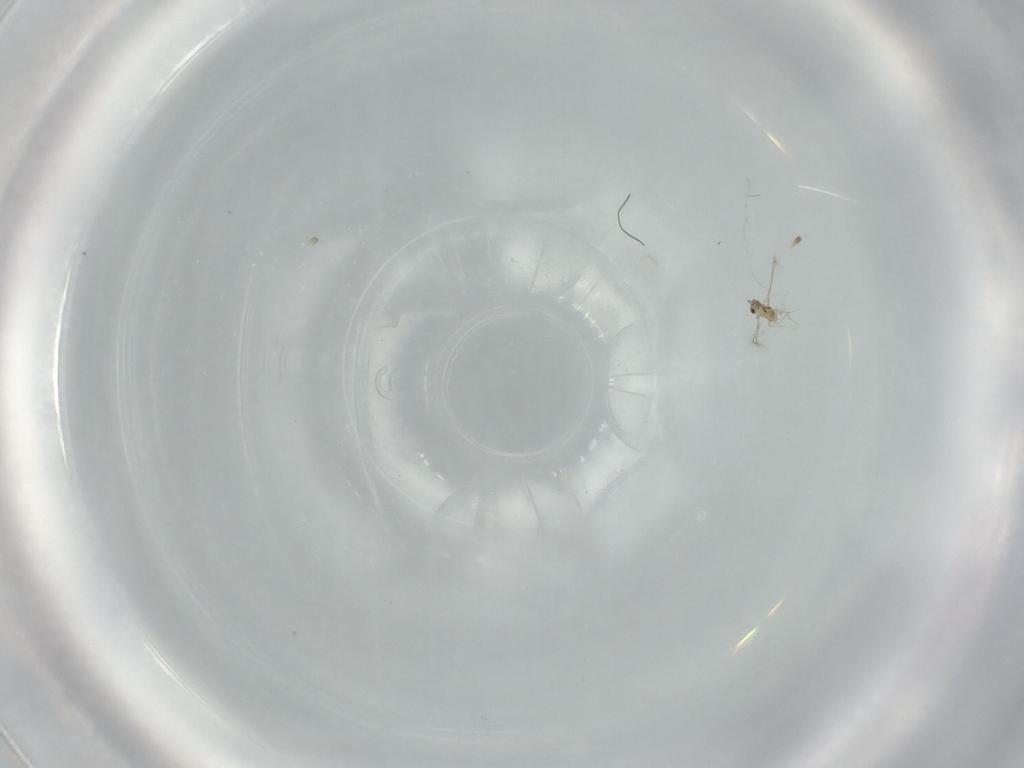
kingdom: Animalia
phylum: Arthropoda
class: Insecta
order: Hymenoptera
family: Mymaridae
